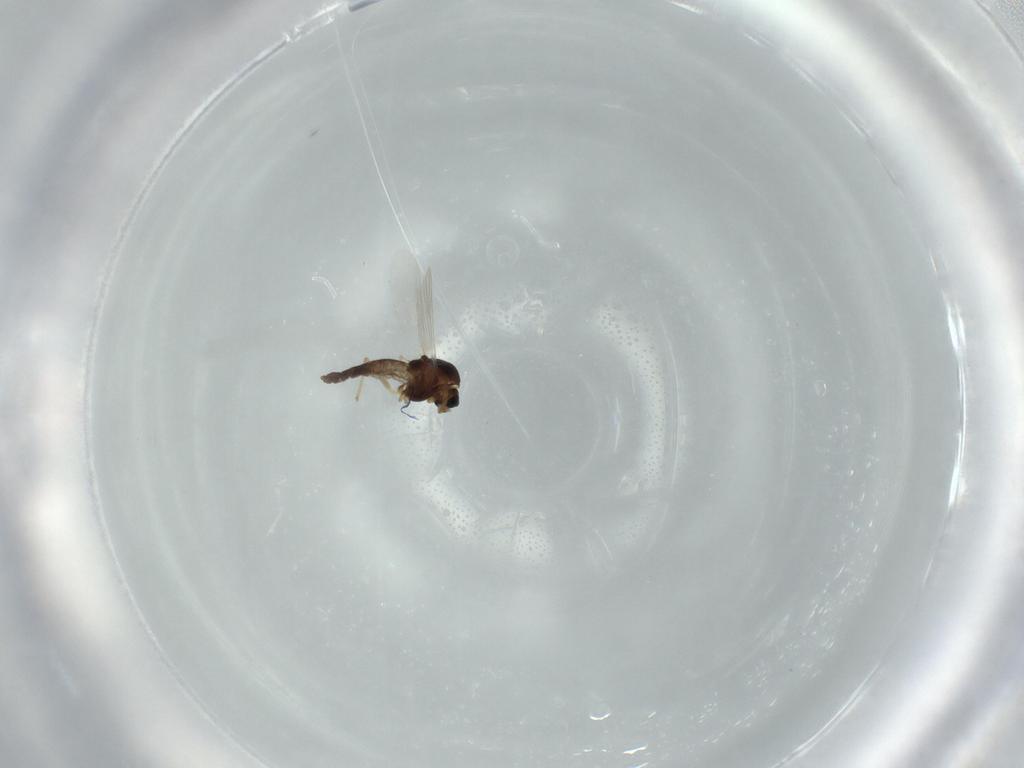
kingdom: Animalia
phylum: Arthropoda
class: Insecta
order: Diptera
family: Chironomidae
